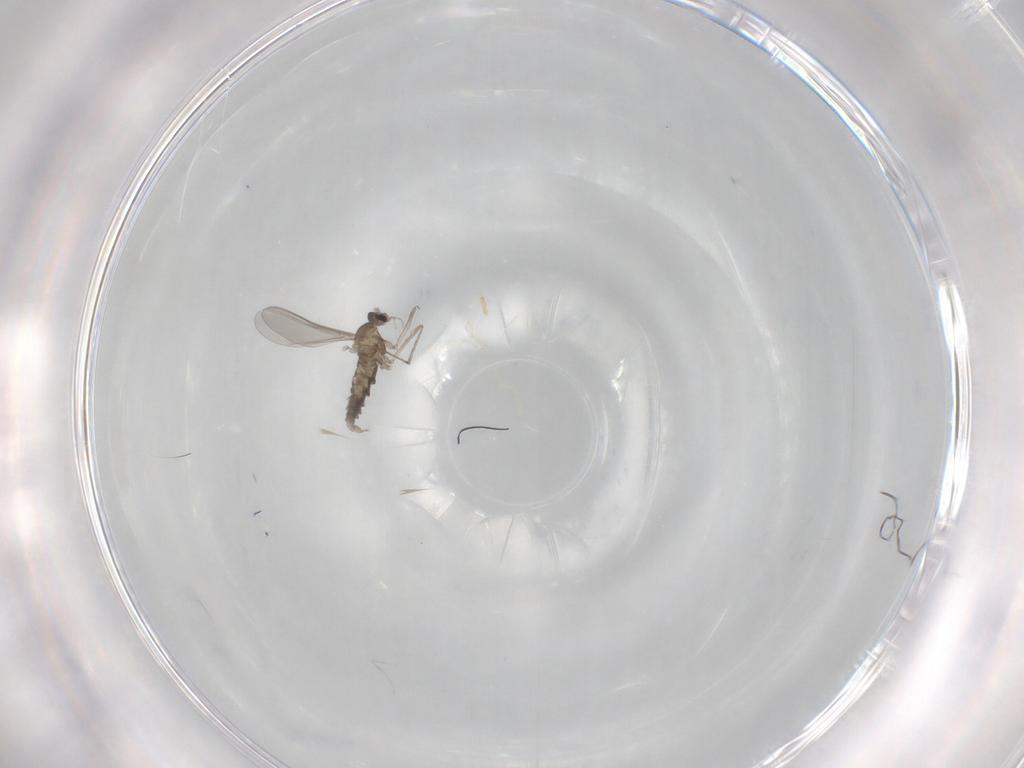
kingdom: Animalia
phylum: Arthropoda
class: Insecta
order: Diptera
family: Cecidomyiidae
